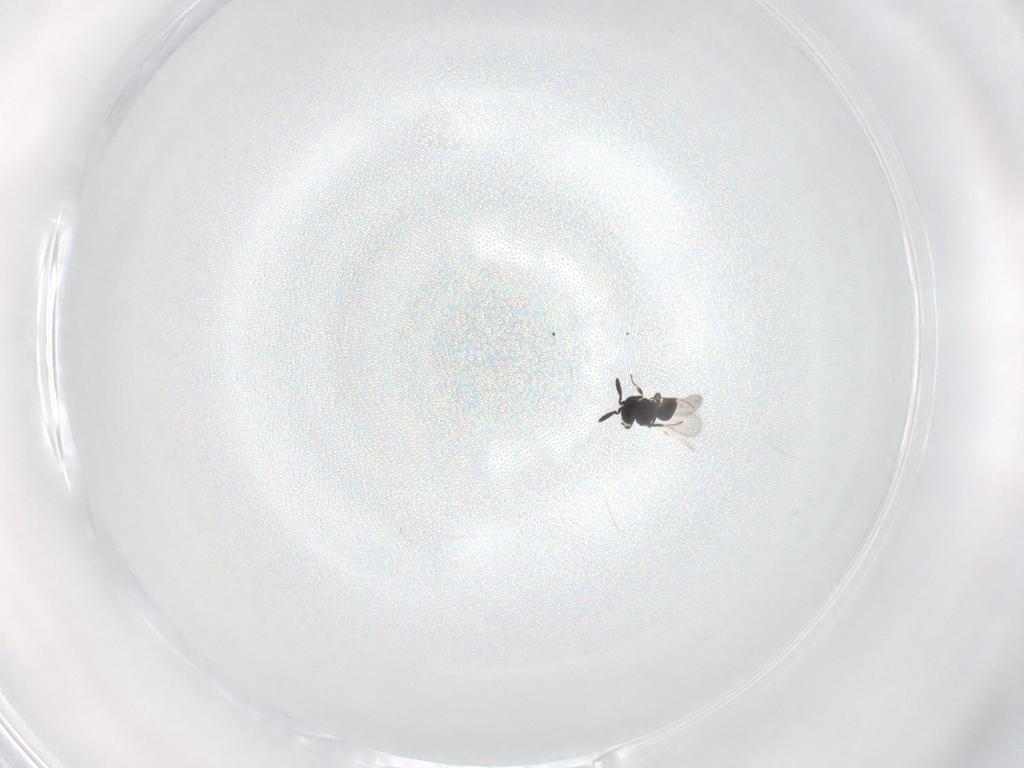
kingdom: Animalia
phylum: Arthropoda
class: Insecta
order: Hymenoptera
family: Scelionidae
